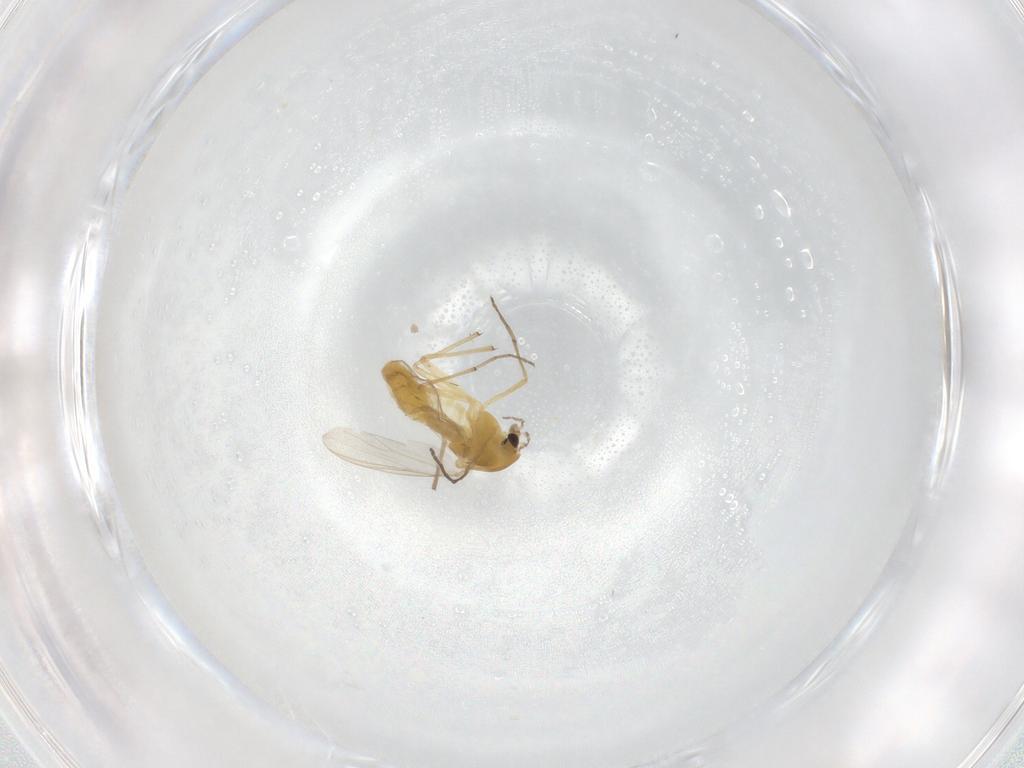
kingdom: Animalia
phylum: Arthropoda
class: Insecta
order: Diptera
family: Chironomidae
